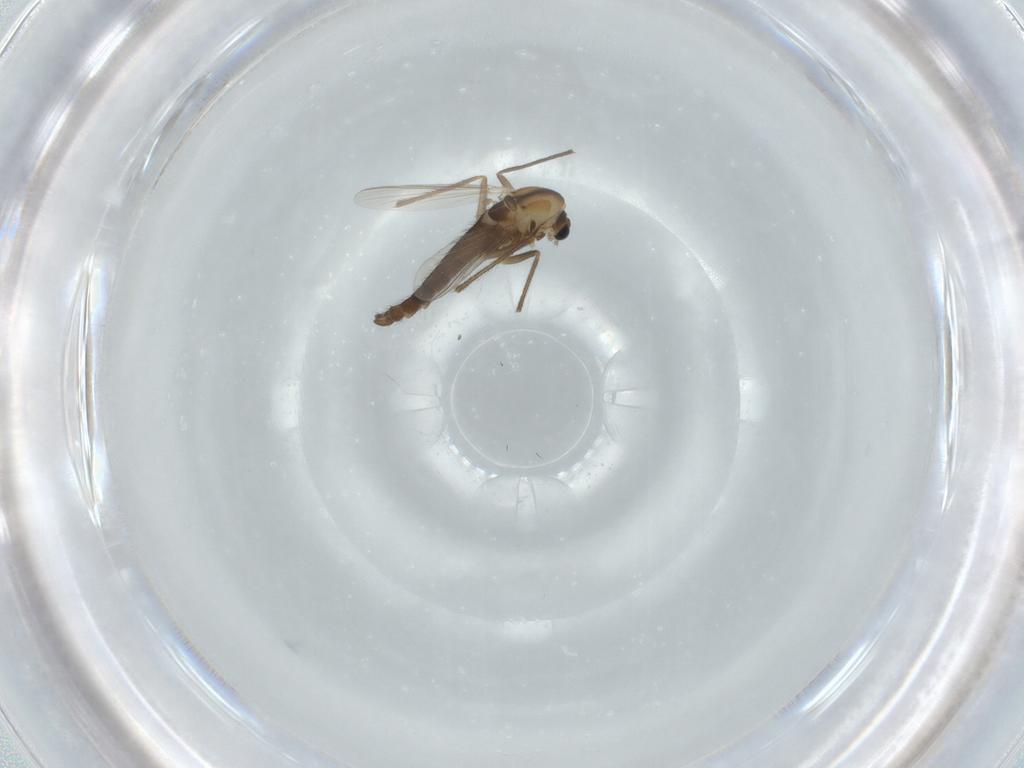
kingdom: Animalia
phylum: Arthropoda
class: Insecta
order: Diptera
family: Chironomidae
